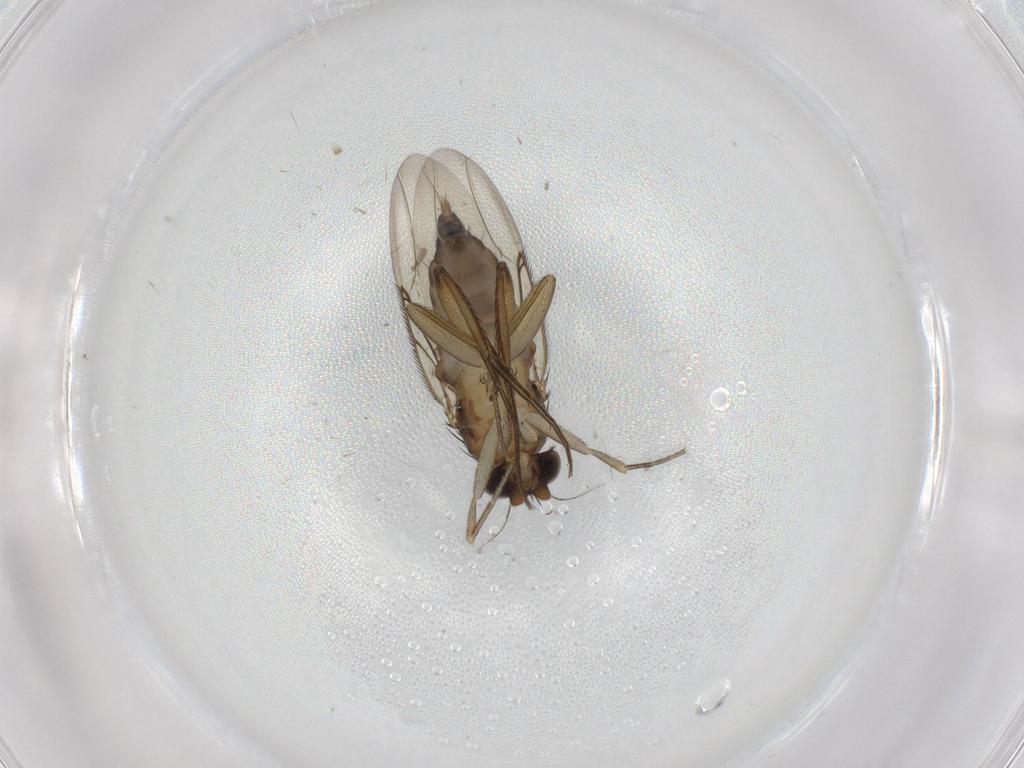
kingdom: Animalia
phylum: Arthropoda
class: Insecta
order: Diptera
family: Phoridae
